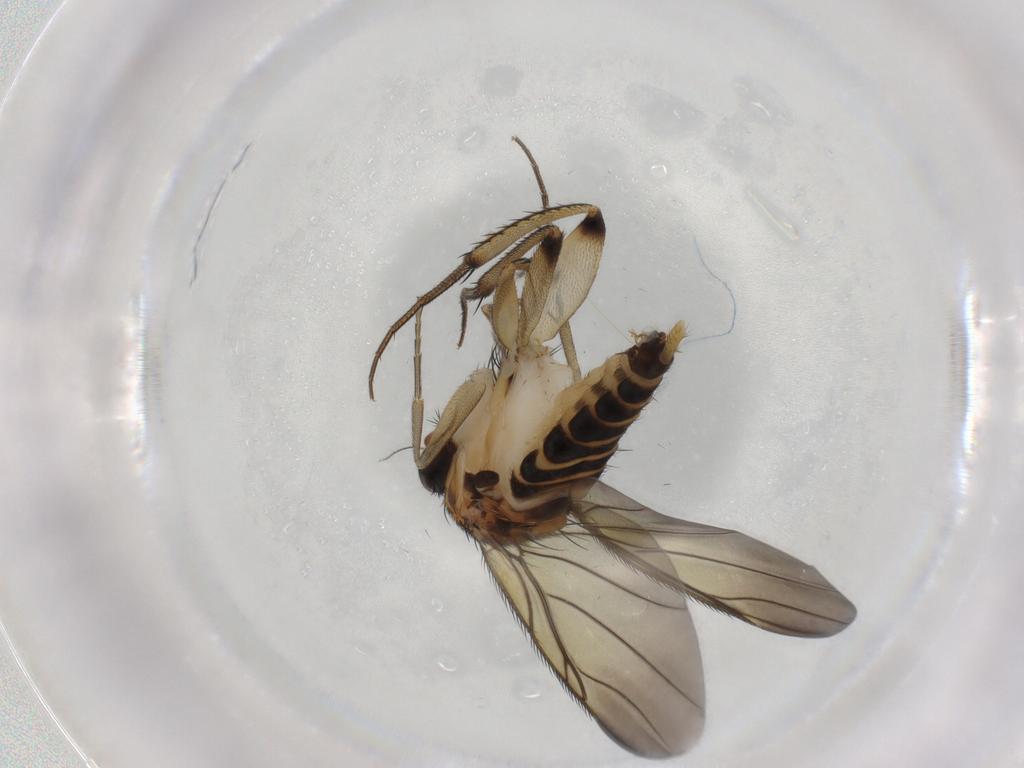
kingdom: Animalia
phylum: Arthropoda
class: Insecta
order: Diptera
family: Phoridae
